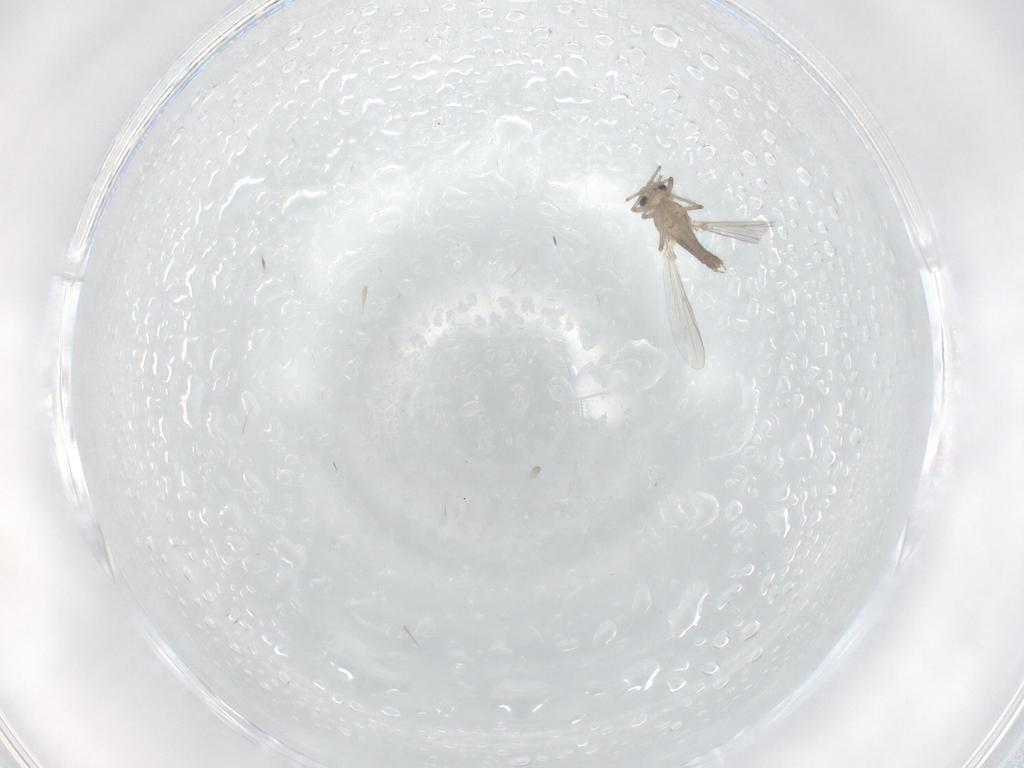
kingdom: Animalia
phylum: Arthropoda
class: Insecta
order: Diptera
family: Chironomidae
